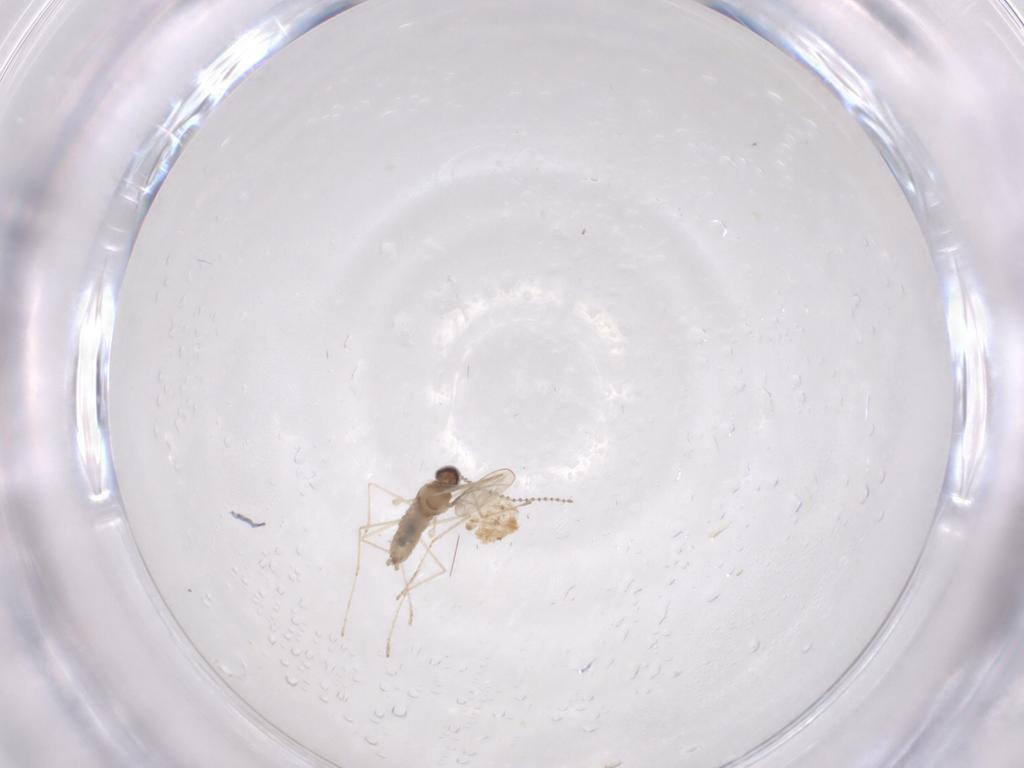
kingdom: Animalia
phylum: Arthropoda
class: Insecta
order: Diptera
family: Cecidomyiidae
